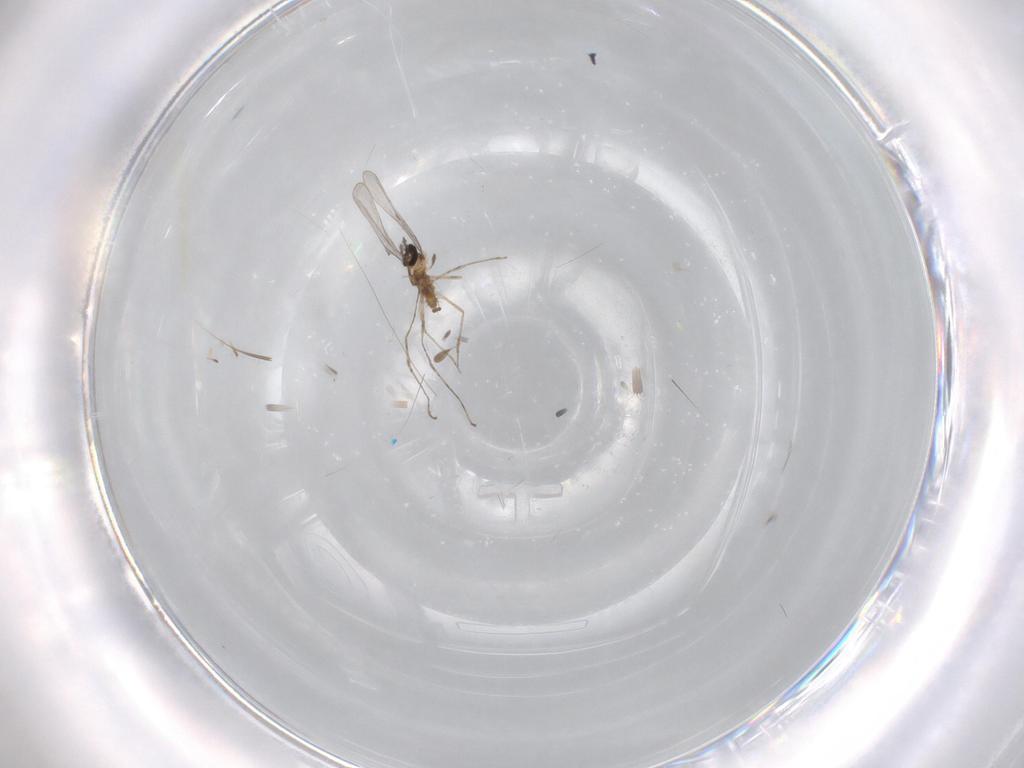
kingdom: Animalia
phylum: Arthropoda
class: Insecta
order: Diptera
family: Cecidomyiidae
